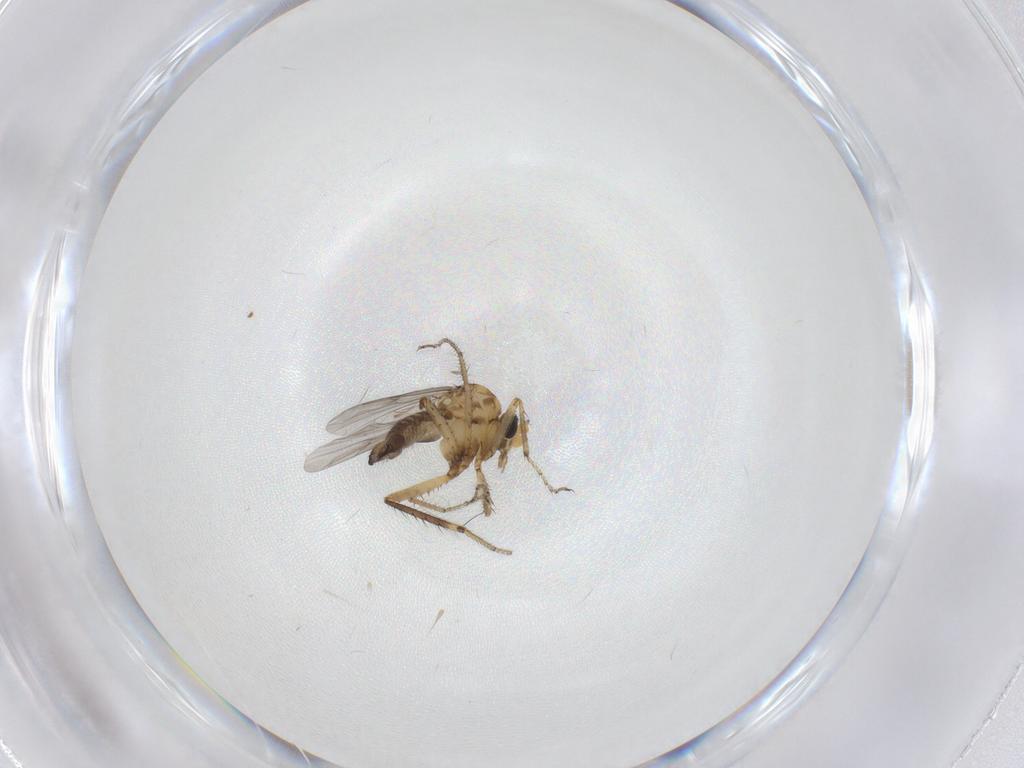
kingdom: Animalia
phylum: Arthropoda
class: Insecta
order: Diptera
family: Ceratopogonidae
